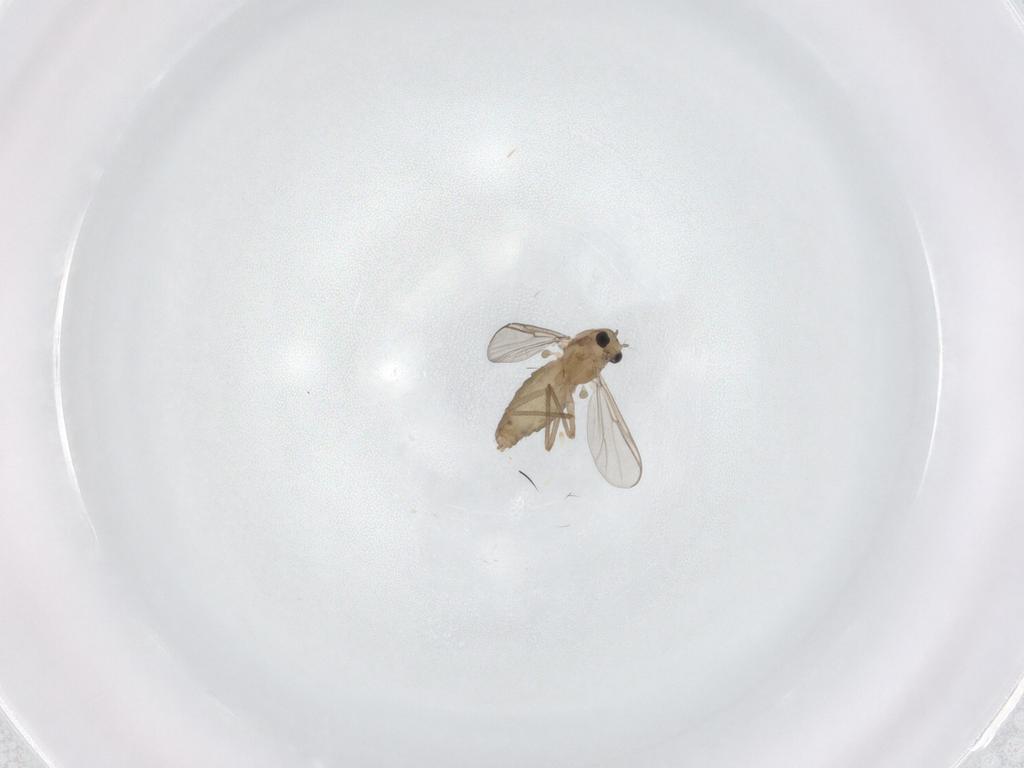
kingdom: Animalia
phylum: Arthropoda
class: Insecta
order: Diptera
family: Chironomidae
